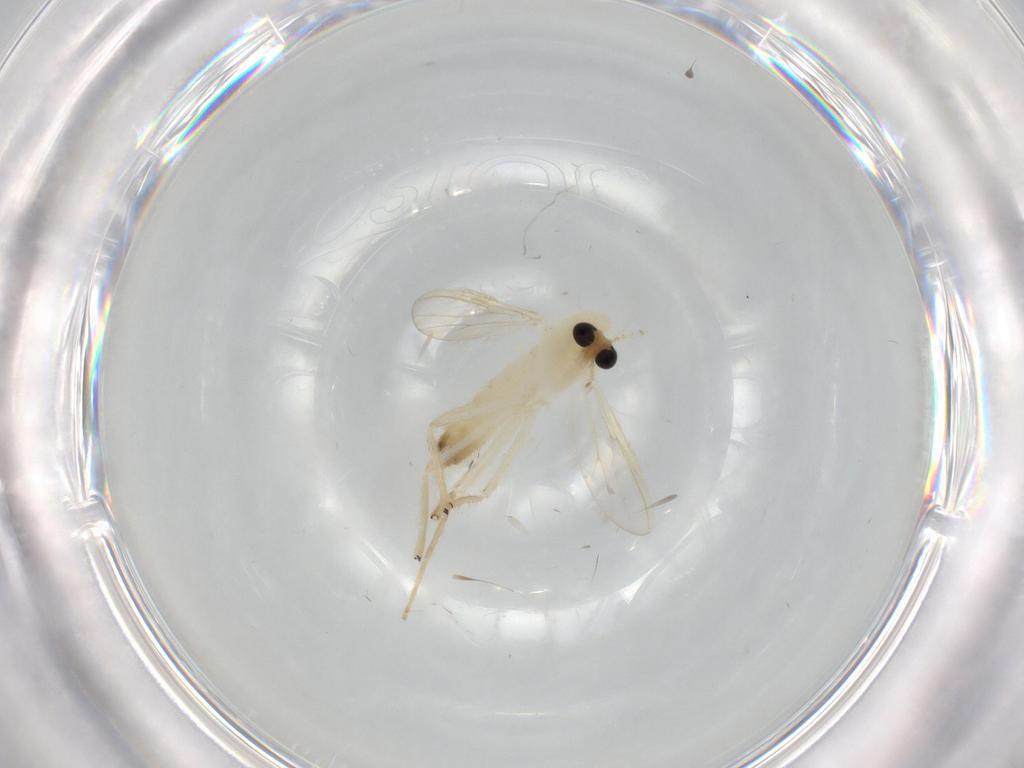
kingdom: Animalia
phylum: Arthropoda
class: Insecta
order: Diptera
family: Chironomidae
